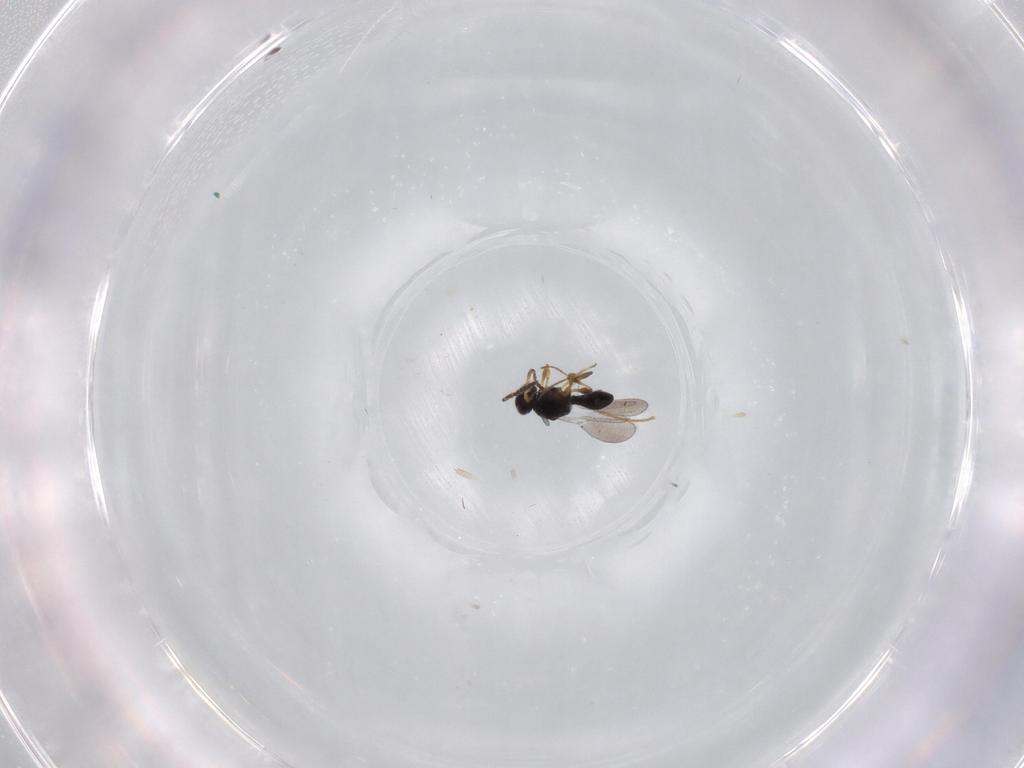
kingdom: Animalia
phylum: Arthropoda
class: Insecta
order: Hymenoptera
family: Platygastridae
